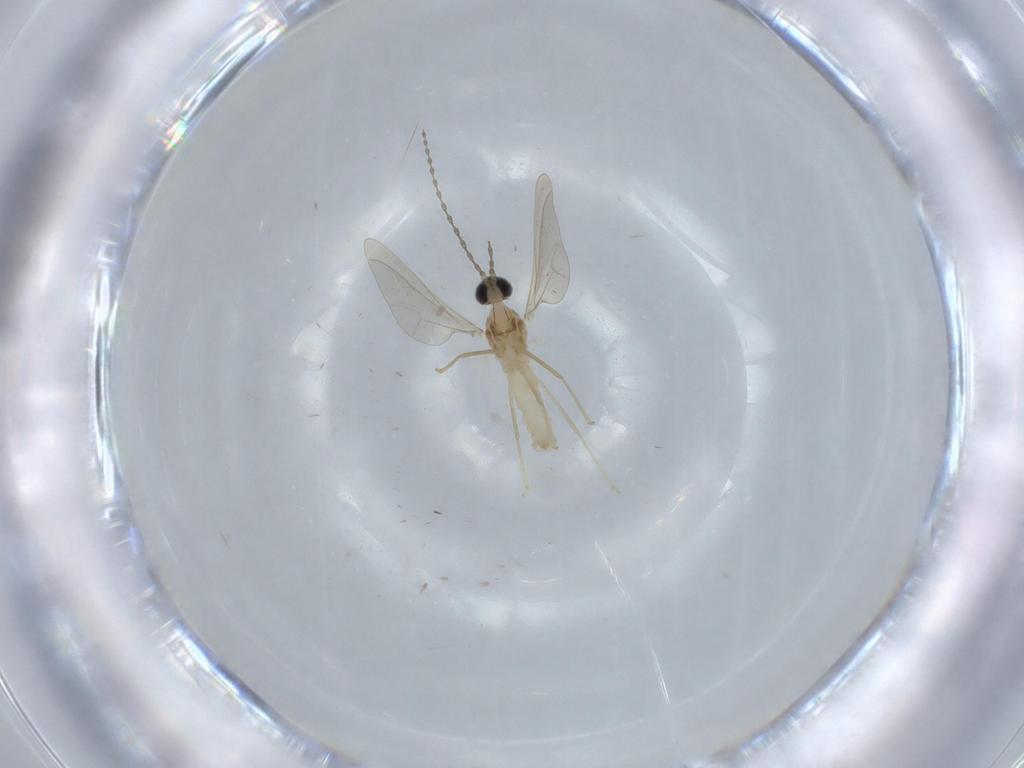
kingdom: Animalia
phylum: Arthropoda
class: Insecta
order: Diptera
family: Cecidomyiidae
